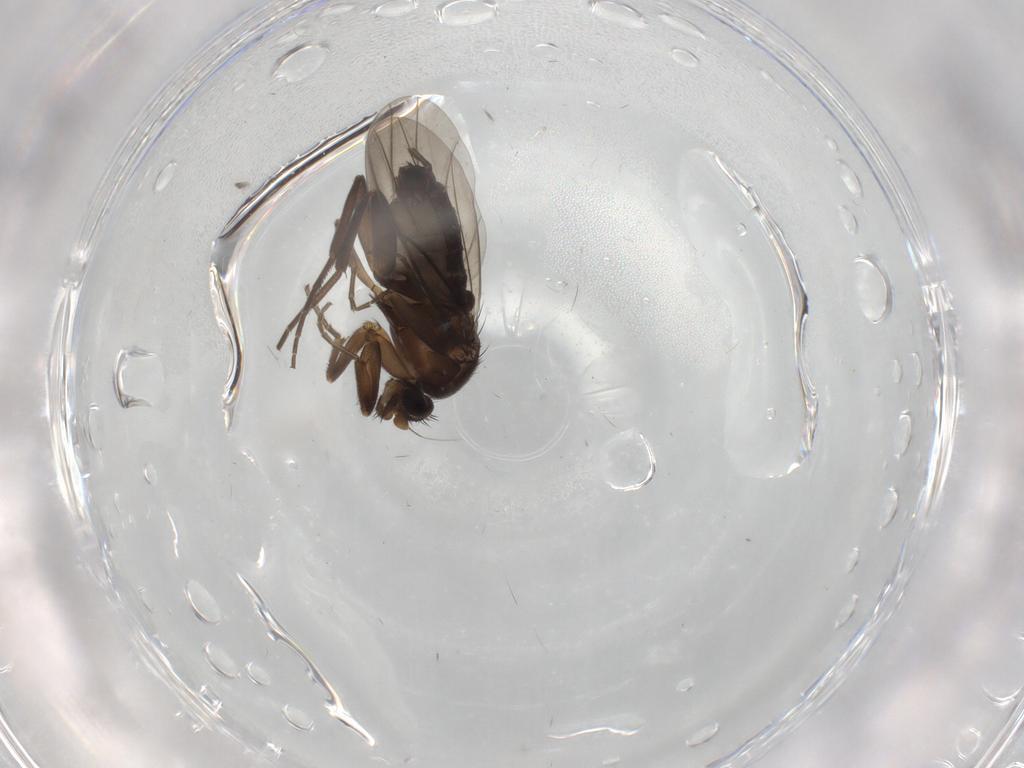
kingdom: Animalia
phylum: Arthropoda
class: Insecta
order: Diptera
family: Cecidomyiidae
